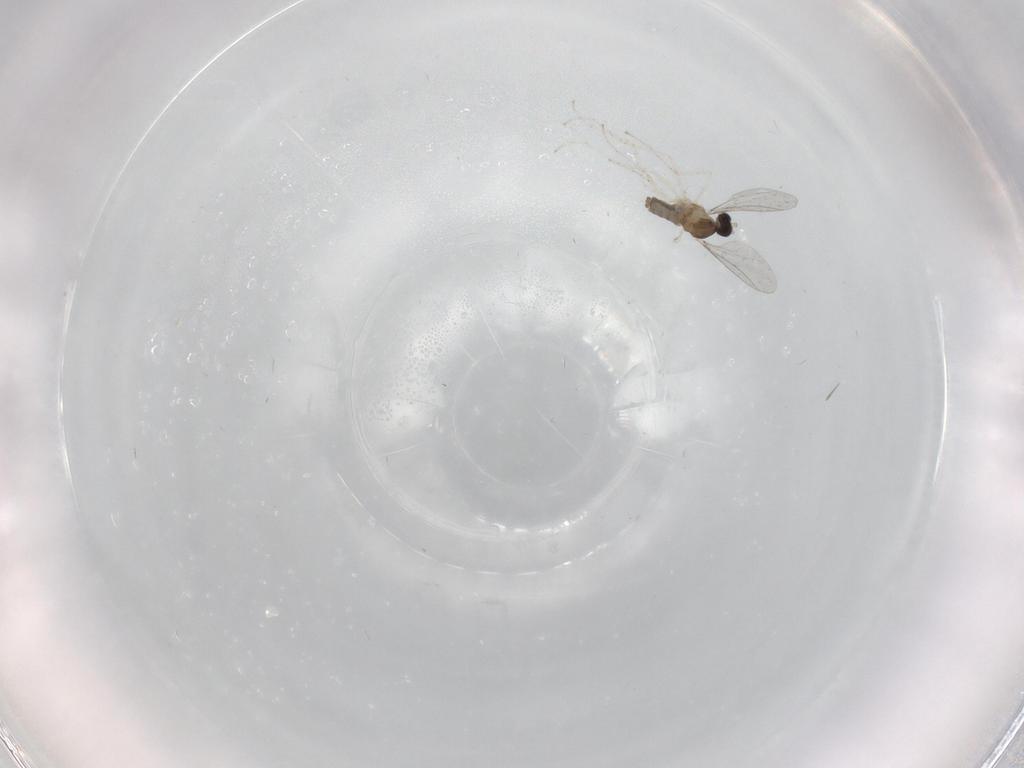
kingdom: Animalia
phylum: Arthropoda
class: Insecta
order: Diptera
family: Cecidomyiidae
